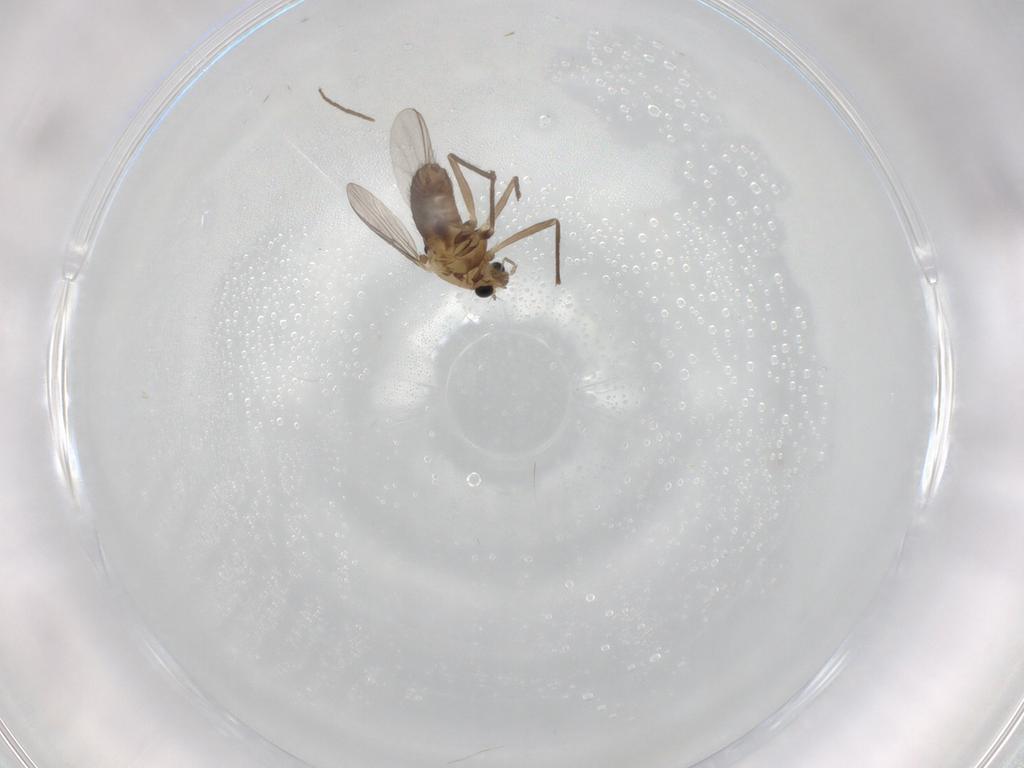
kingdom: Animalia
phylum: Arthropoda
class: Insecta
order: Diptera
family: Chironomidae
